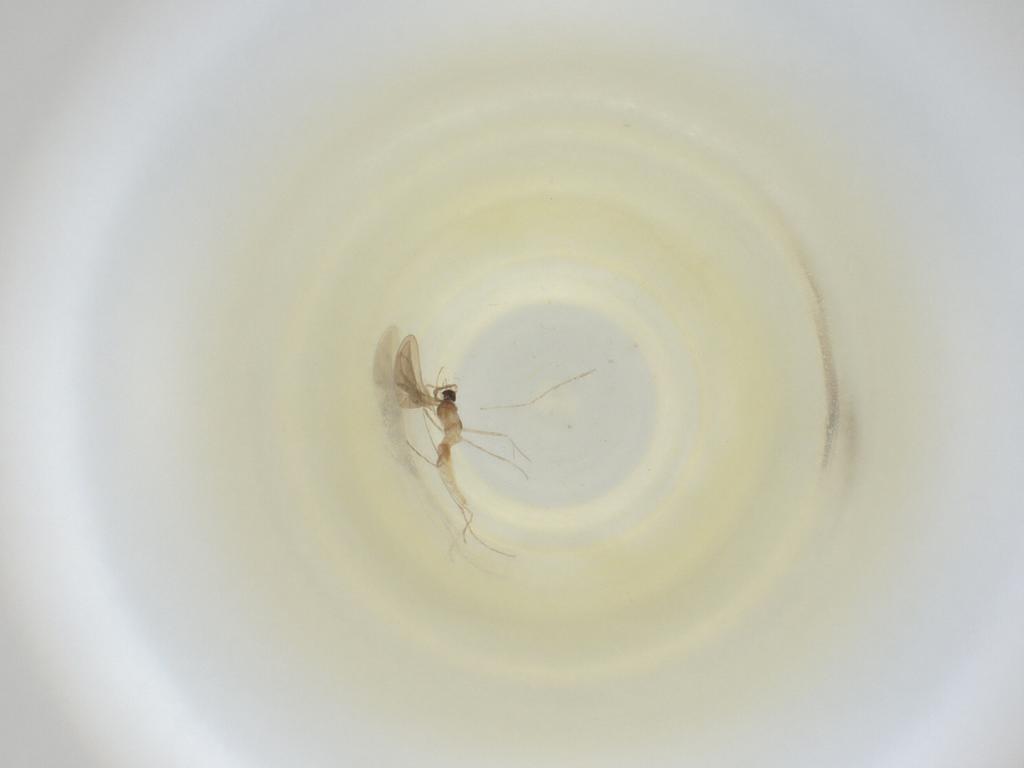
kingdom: Animalia
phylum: Arthropoda
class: Insecta
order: Diptera
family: Cecidomyiidae
